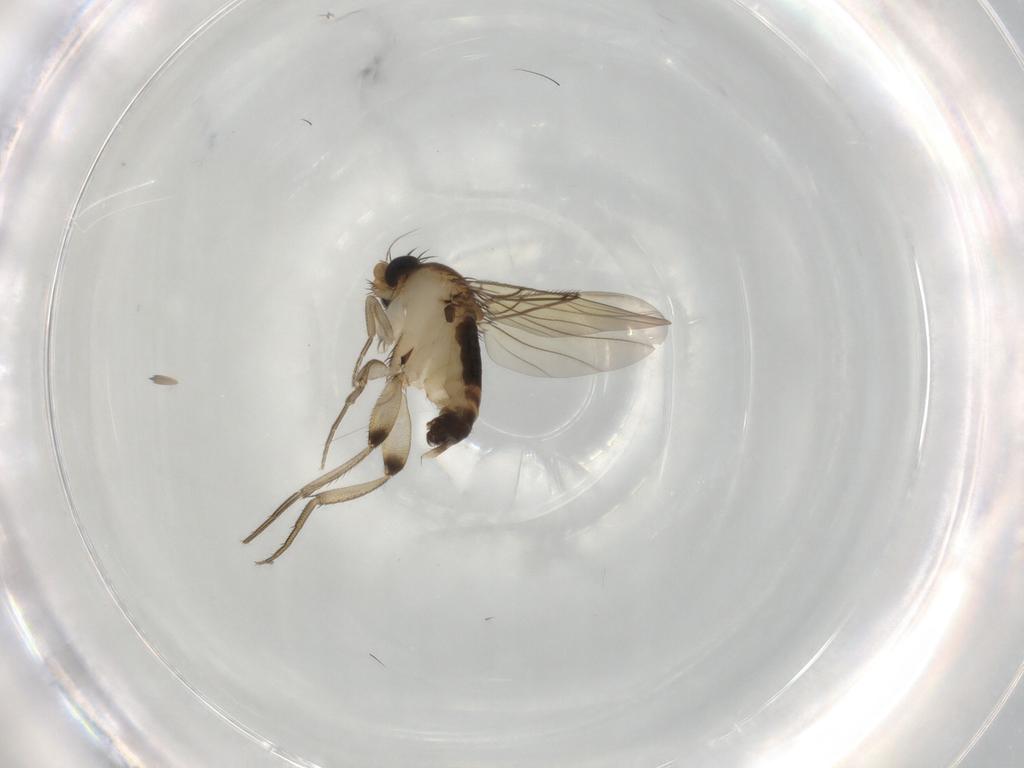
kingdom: Animalia
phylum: Arthropoda
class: Insecta
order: Diptera
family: Phoridae
